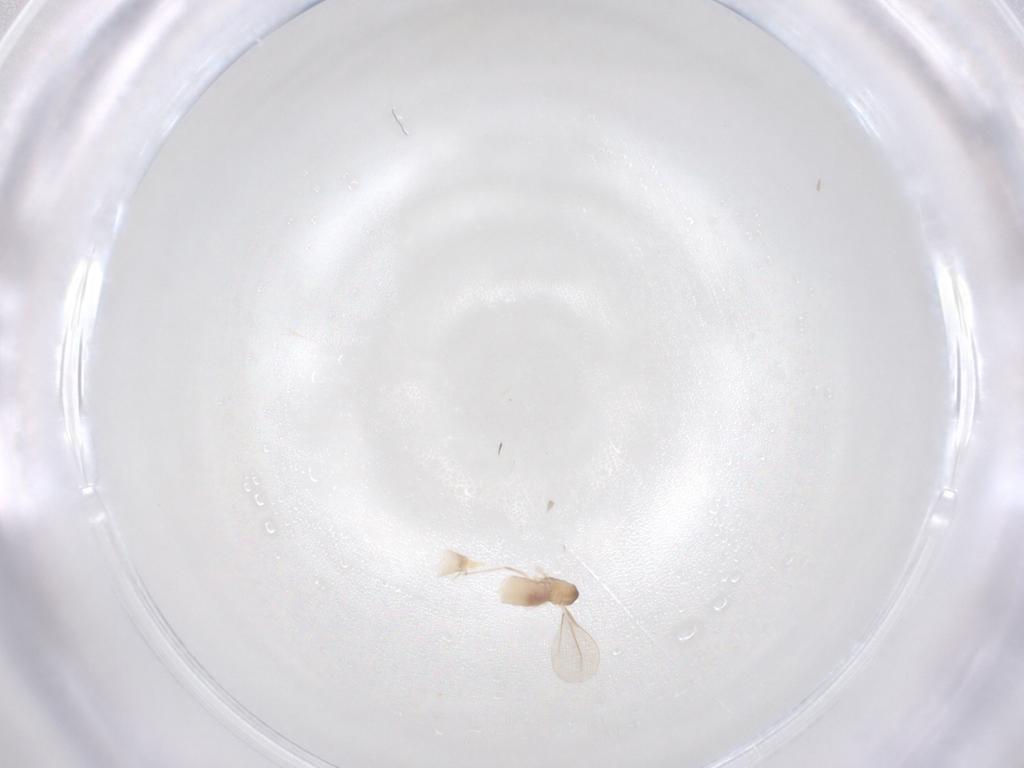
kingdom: Animalia
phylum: Arthropoda
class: Insecta
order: Diptera
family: Cecidomyiidae
